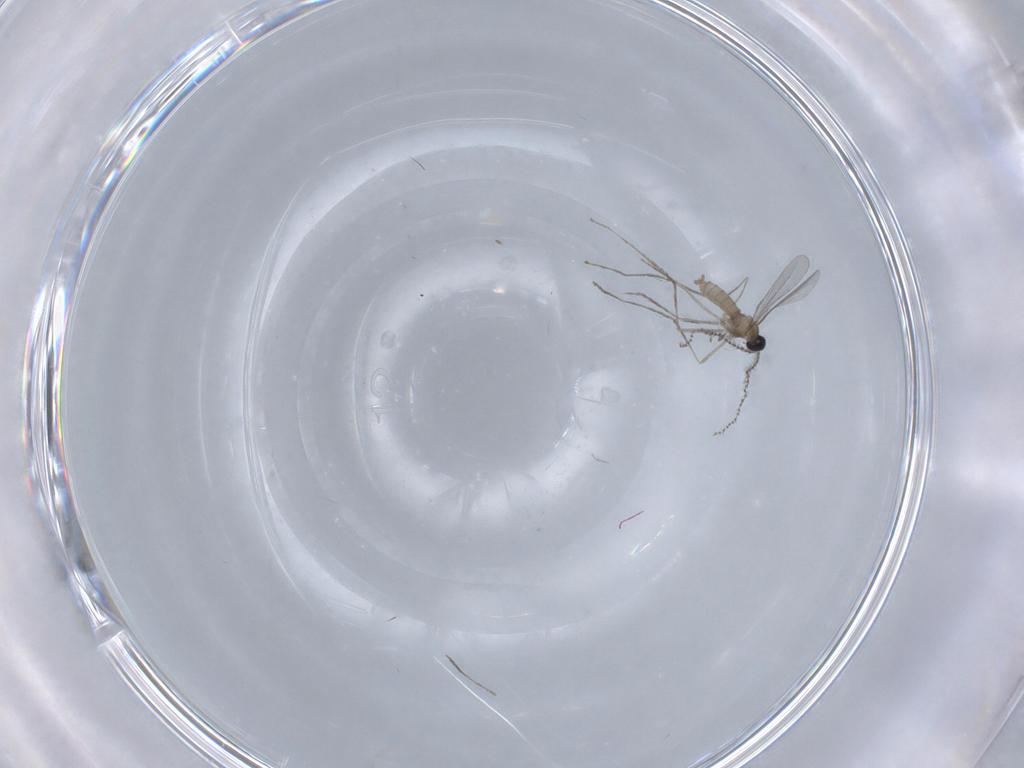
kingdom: Animalia
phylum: Arthropoda
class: Insecta
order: Diptera
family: Cecidomyiidae
